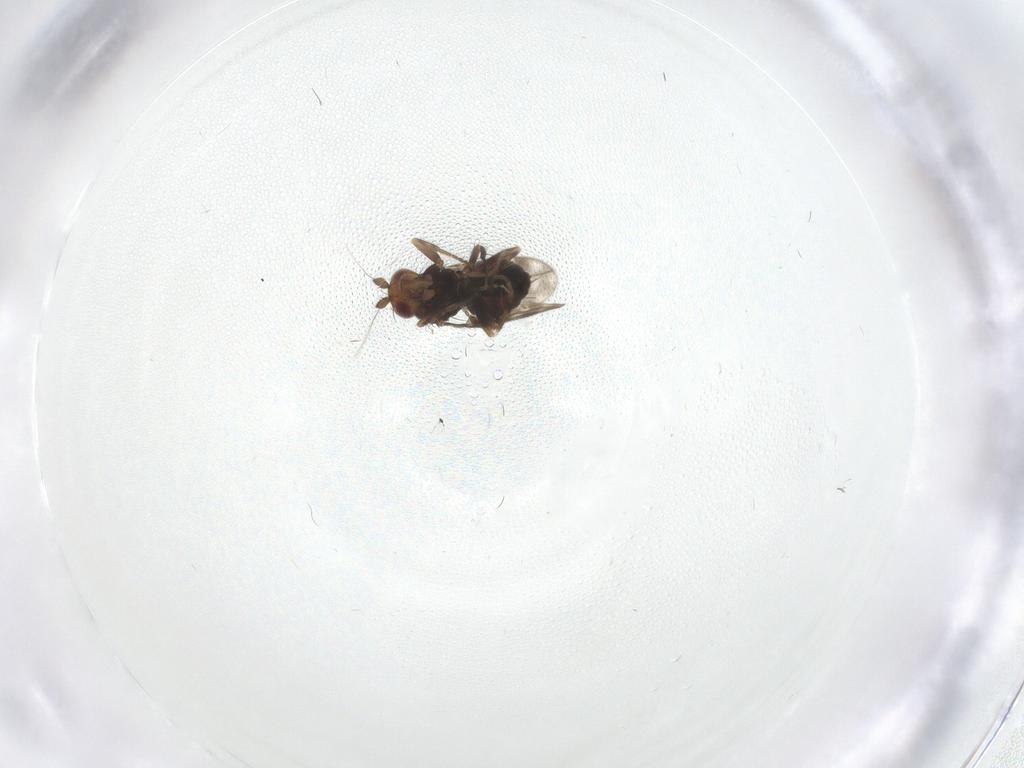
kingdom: Animalia
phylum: Arthropoda
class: Insecta
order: Diptera
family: Sphaeroceridae
